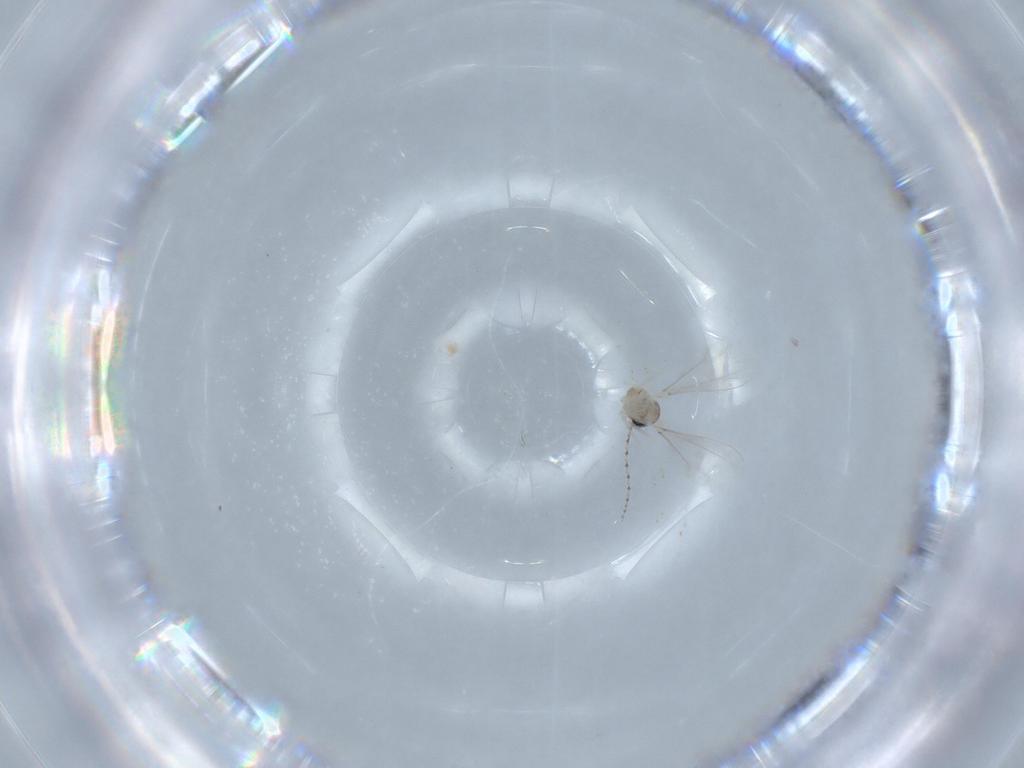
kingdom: Animalia
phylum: Arthropoda
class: Insecta
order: Diptera
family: Cecidomyiidae
